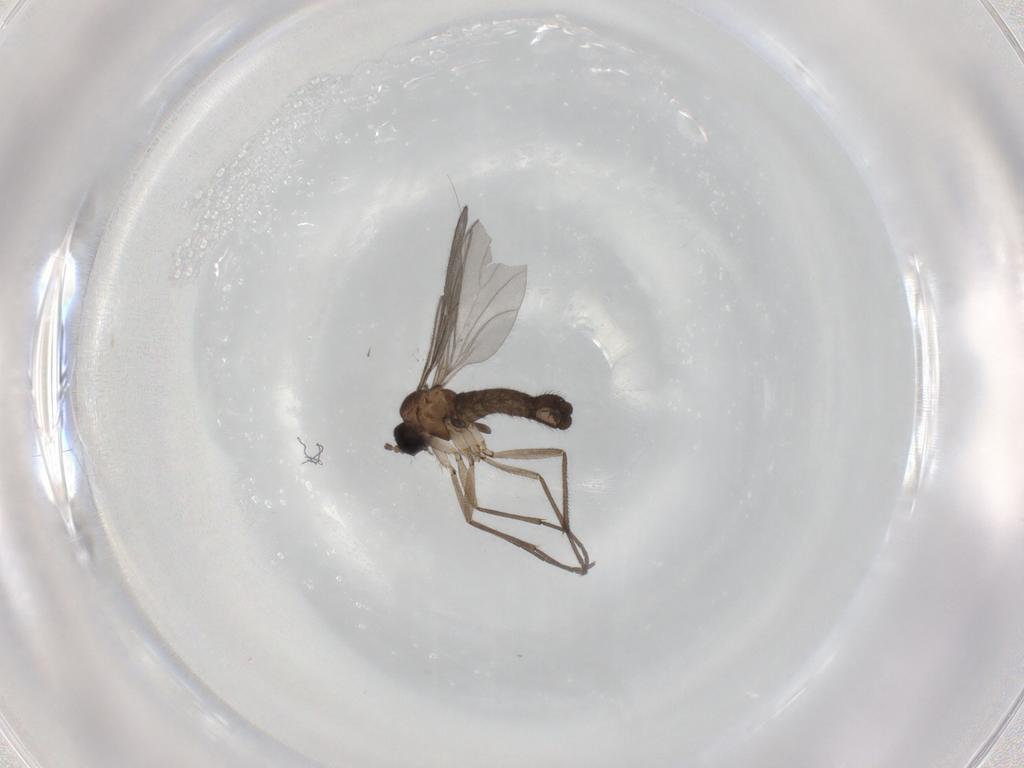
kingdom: Animalia
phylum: Arthropoda
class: Insecta
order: Diptera
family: Sciaridae
